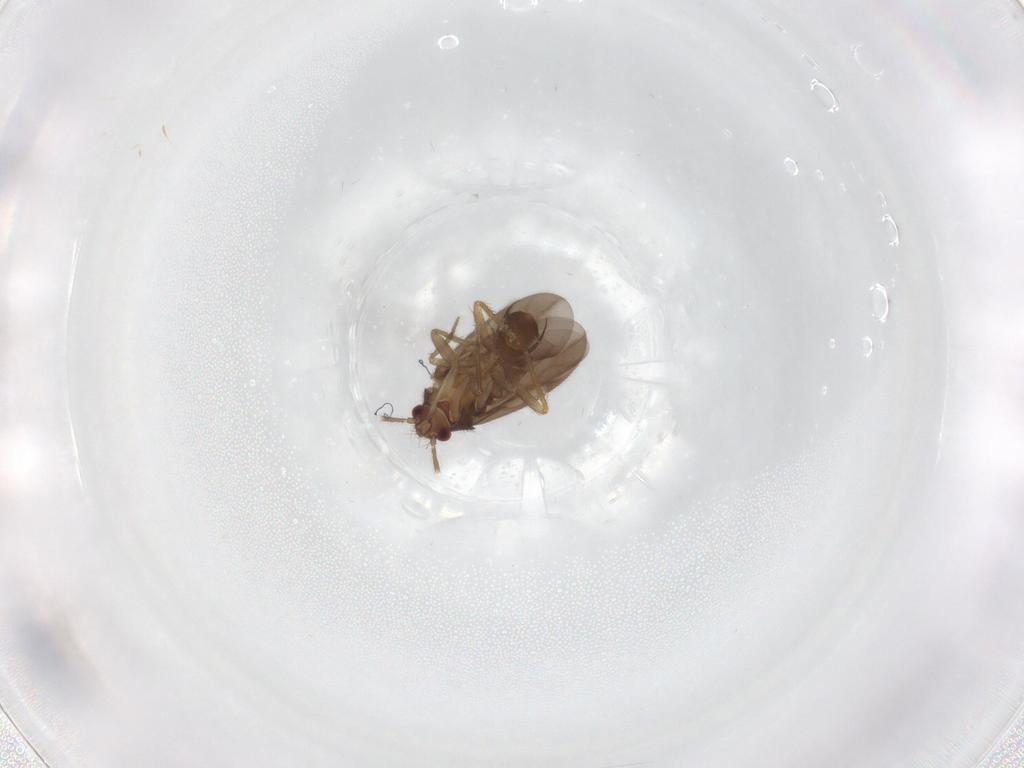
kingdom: Animalia
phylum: Arthropoda
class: Insecta
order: Hemiptera
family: Ceratocombidae
